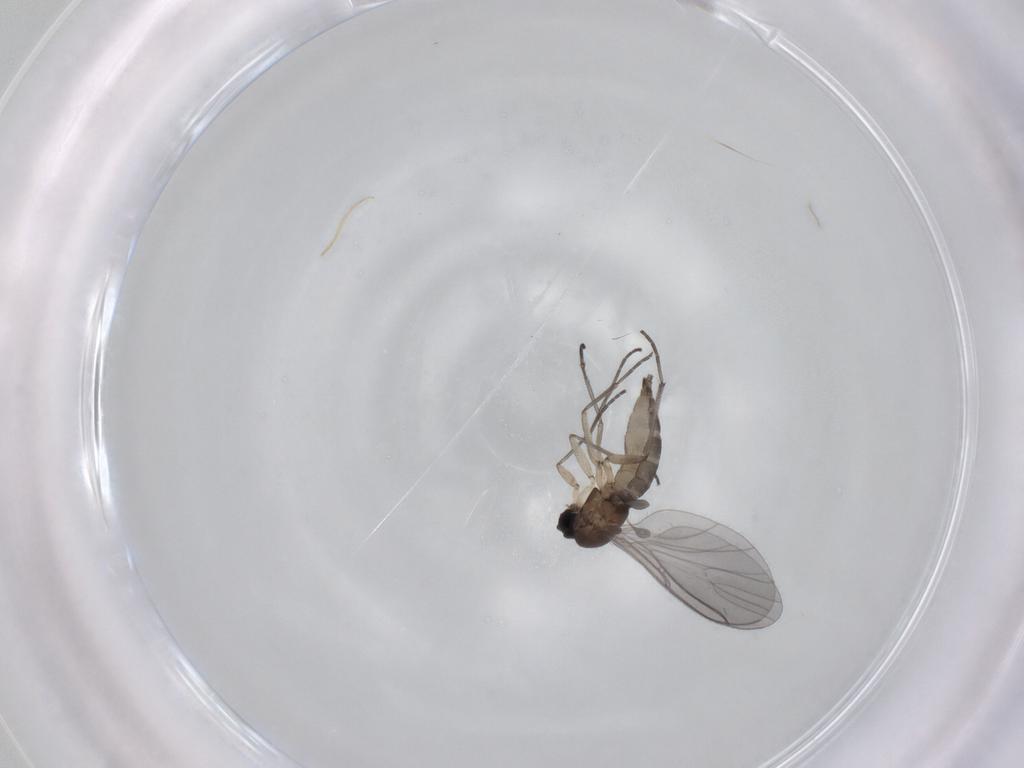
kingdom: Animalia
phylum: Arthropoda
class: Insecta
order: Diptera
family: Sciaridae
